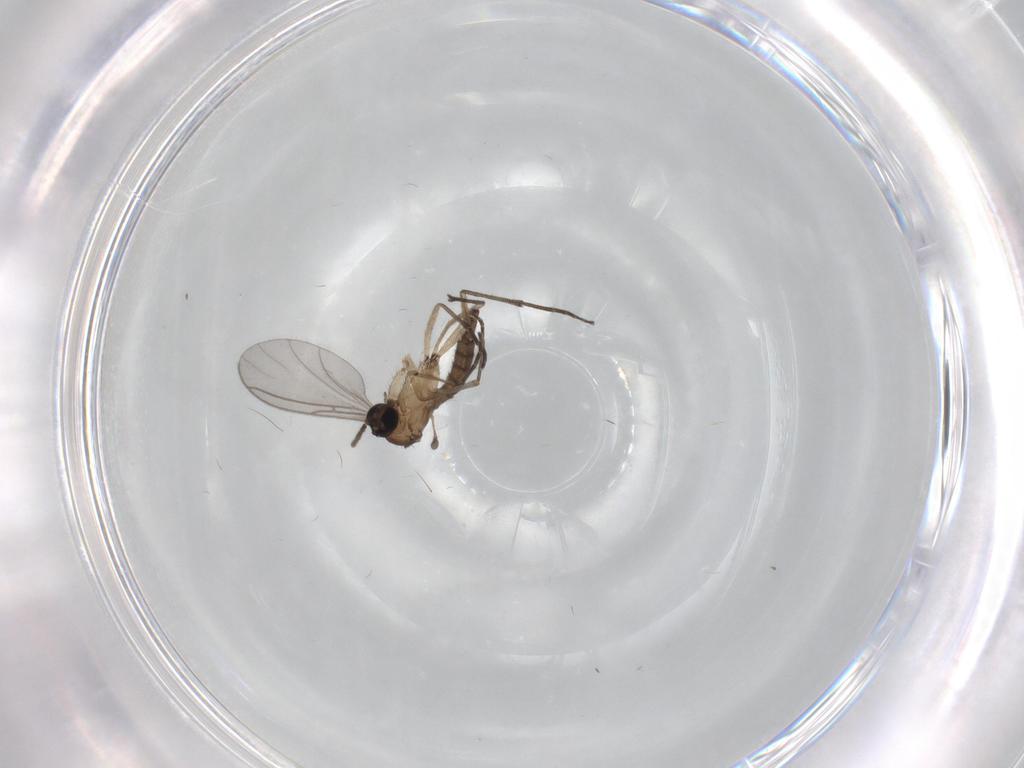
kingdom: Animalia
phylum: Arthropoda
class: Insecta
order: Diptera
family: Sciaridae
